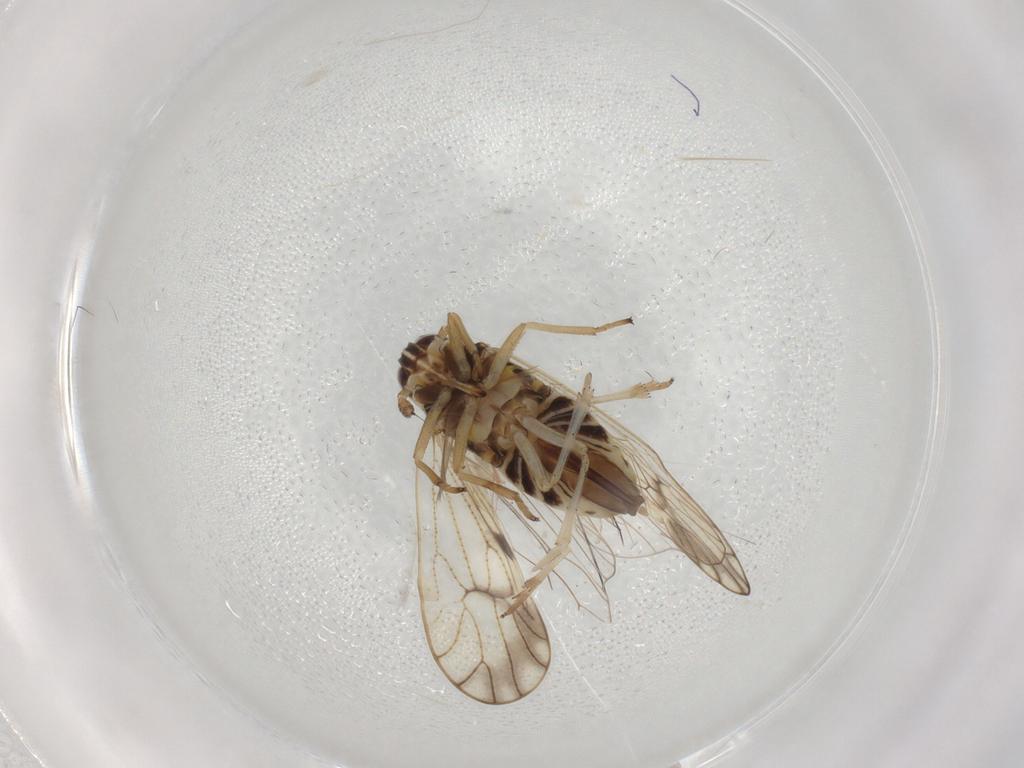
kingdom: Animalia
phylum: Arthropoda
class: Insecta
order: Hemiptera
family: Delphacidae
